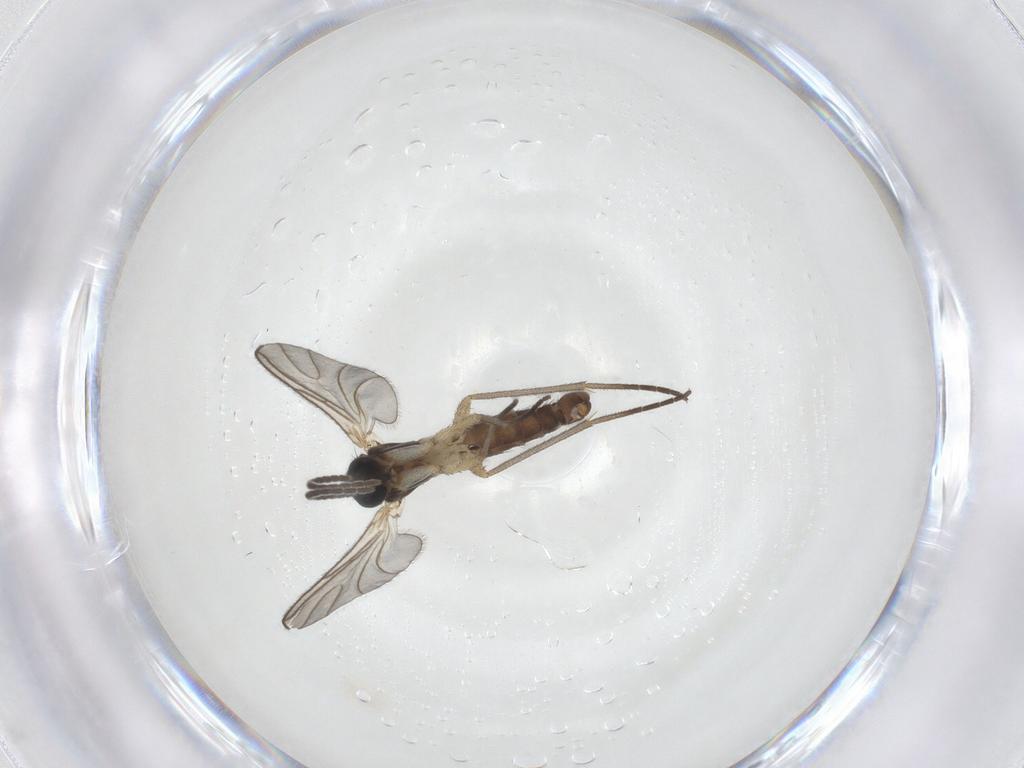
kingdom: Animalia
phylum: Arthropoda
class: Insecta
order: Diptera
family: Sciaridae
